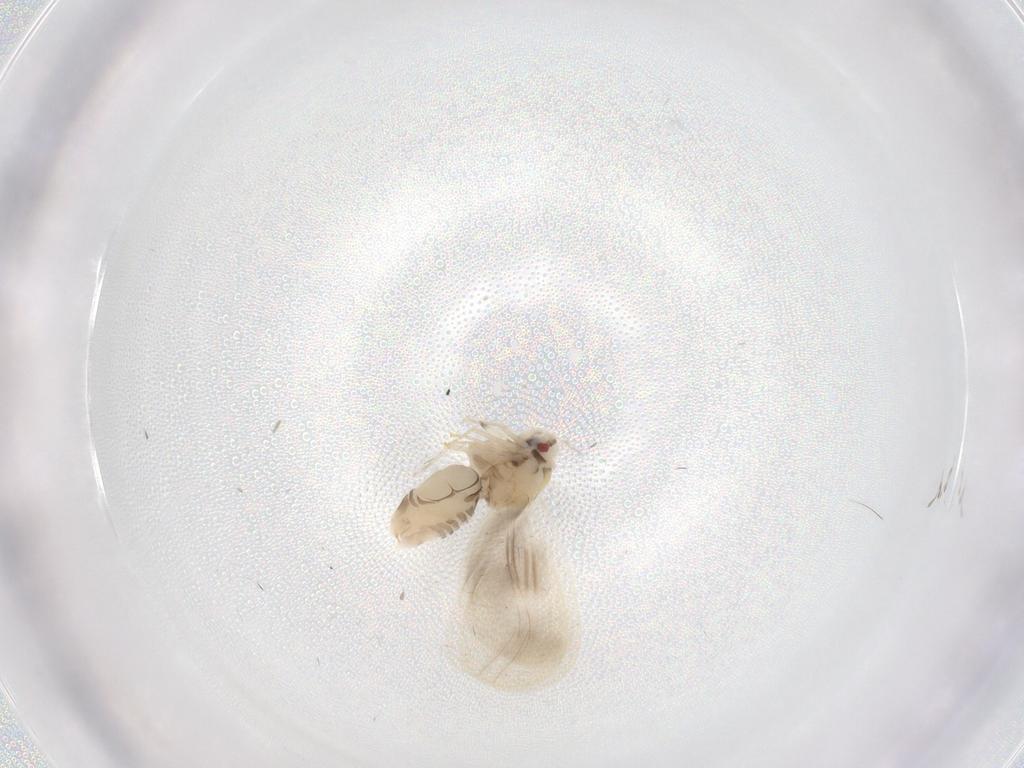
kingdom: Animalia
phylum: Arthropoda
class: Insecta
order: Hemiptera
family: Aleyrodidae
